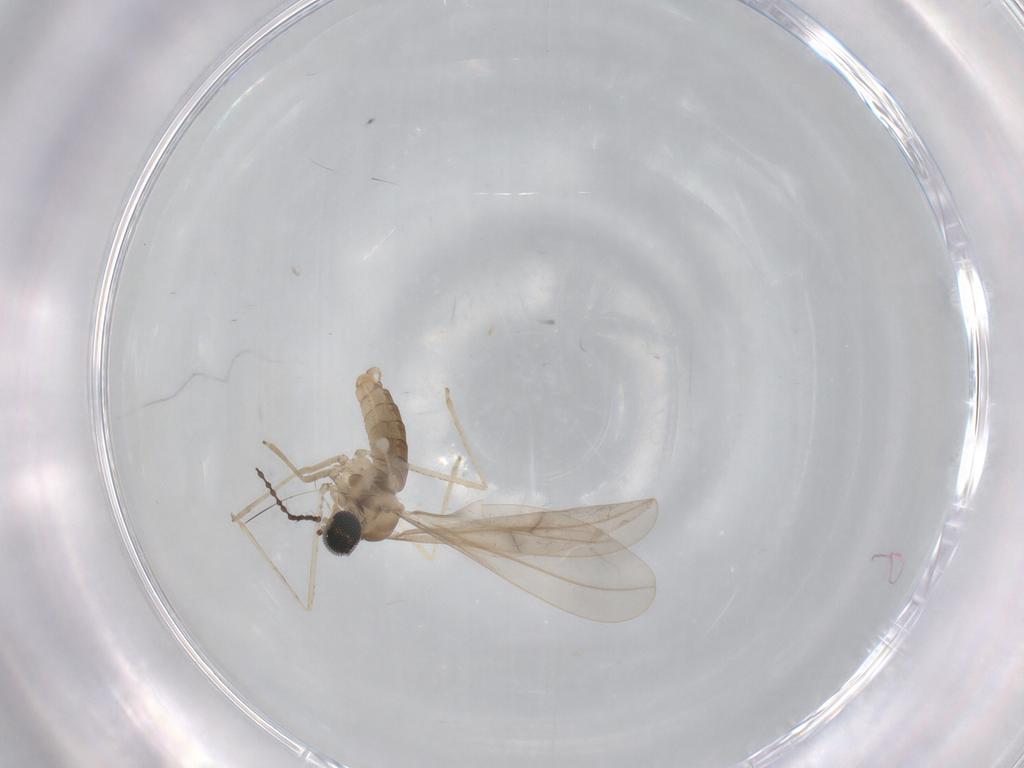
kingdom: Animalia
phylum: Arthropoda
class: Insecta
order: Diptera
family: Cecidomyiidae
